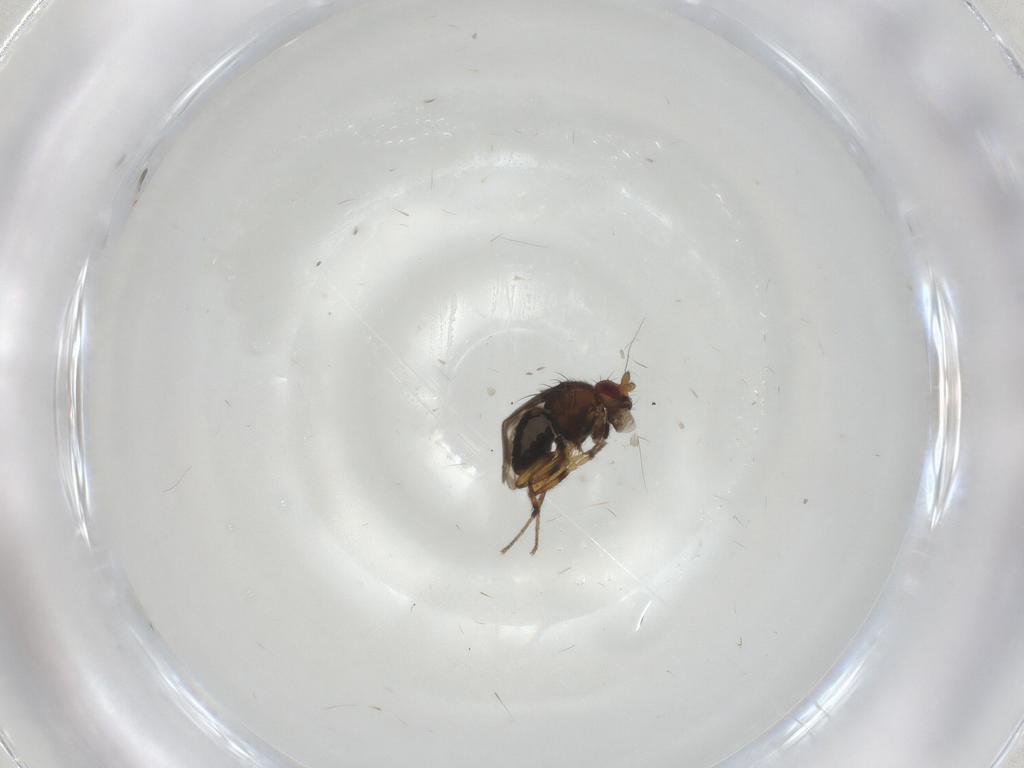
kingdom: Animalia
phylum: Arthropoda
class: Insecta
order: Diptera
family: Sphaeroceridae
